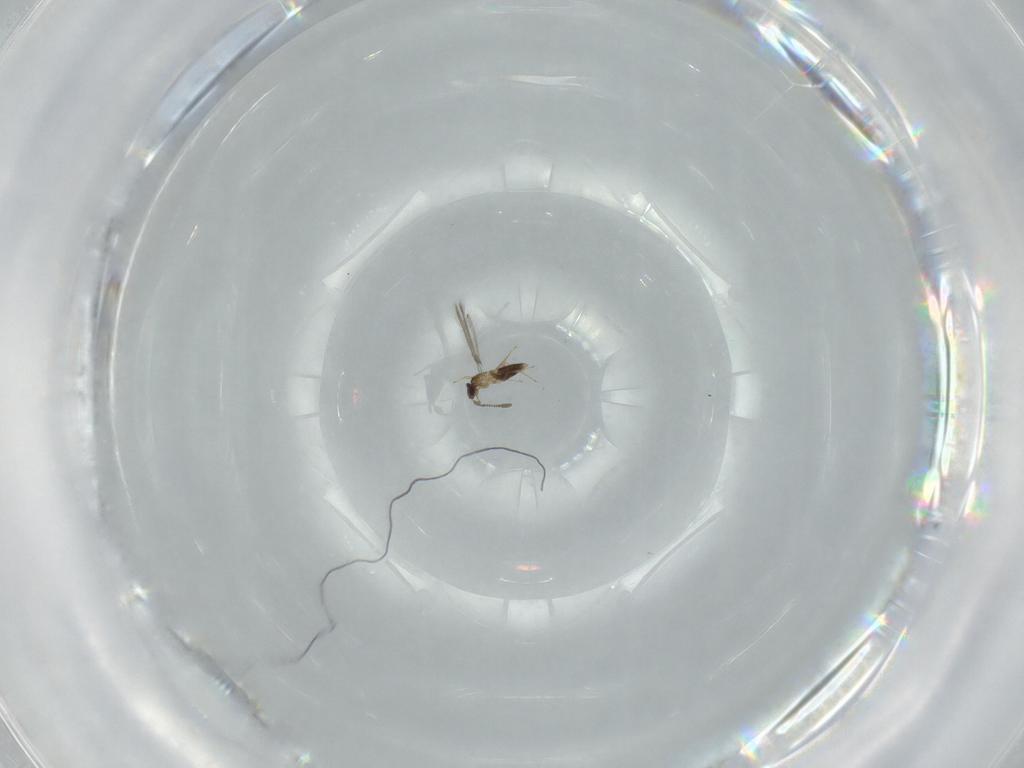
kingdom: Animalia
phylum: Arthropoda
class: Insecta
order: Hymenoptera
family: Mymaridae
